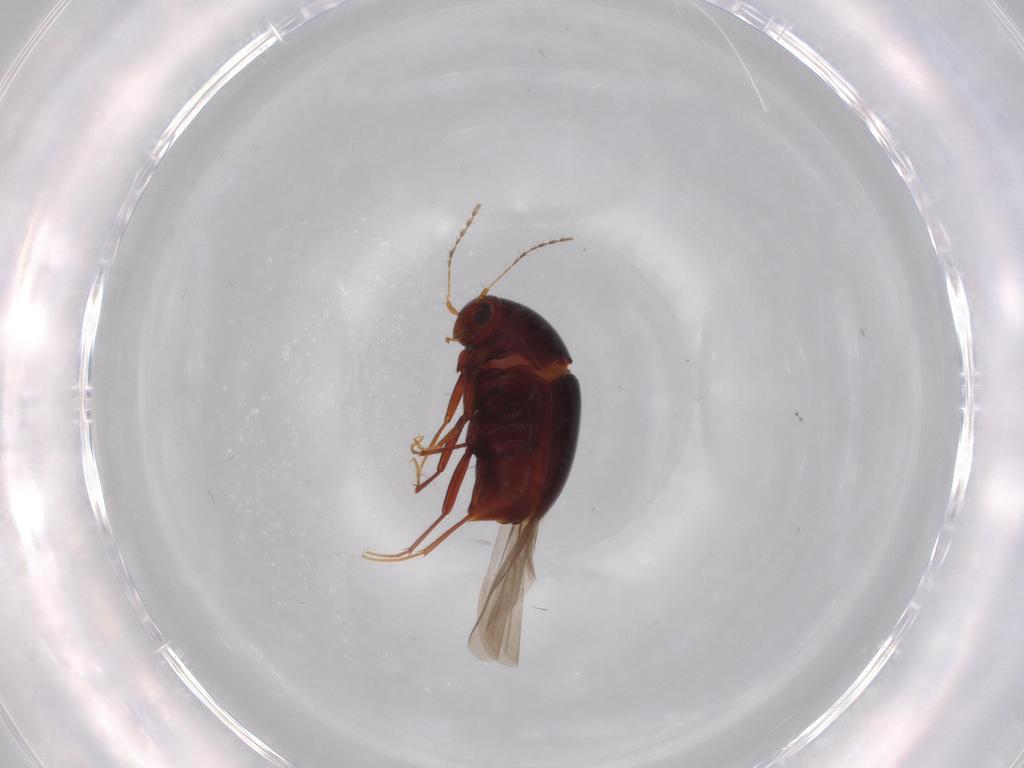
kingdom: Animalia
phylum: Arthropoda
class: Insecta
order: Coleoptera
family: Staphylinidae
